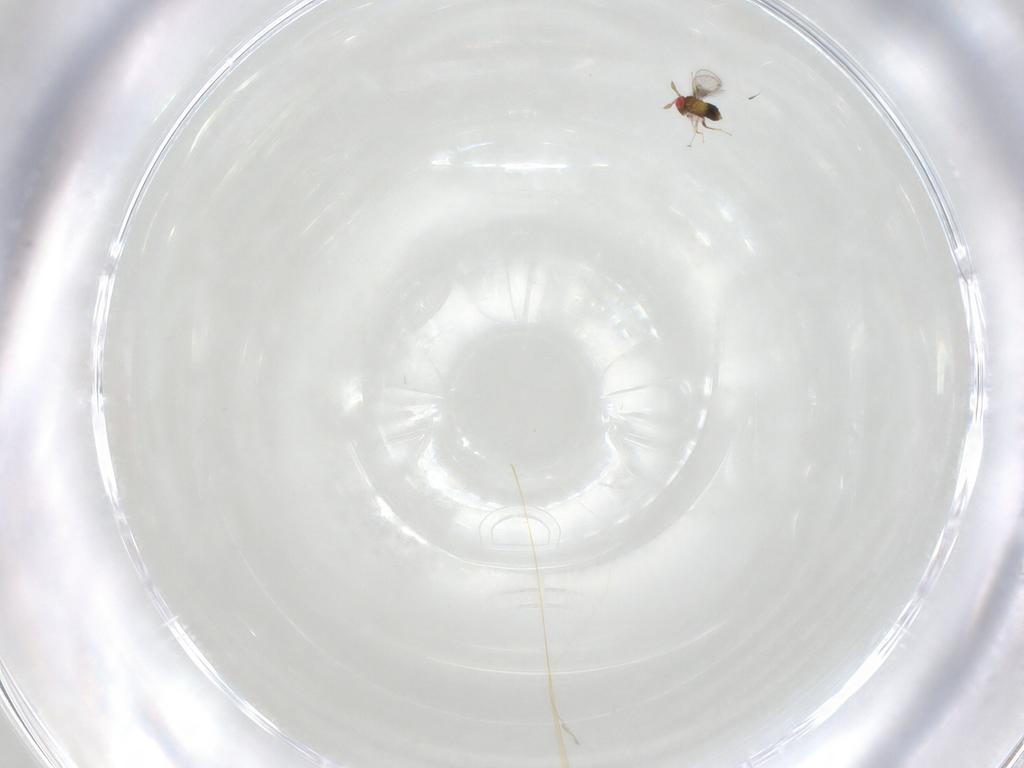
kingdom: Animalia
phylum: Arthropoda
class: Insecta
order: Hymenoptera
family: Trichogrammatidae
